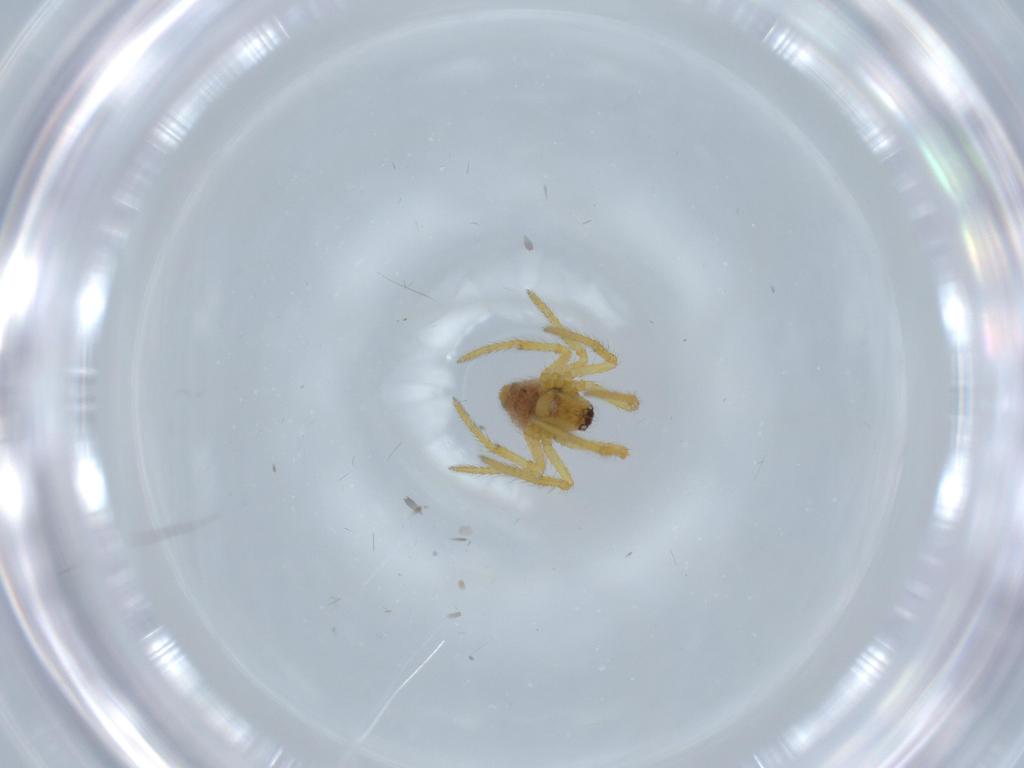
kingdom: Animalia
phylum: Arthropoda
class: Arachnida
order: Araneae
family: Theridiidae
